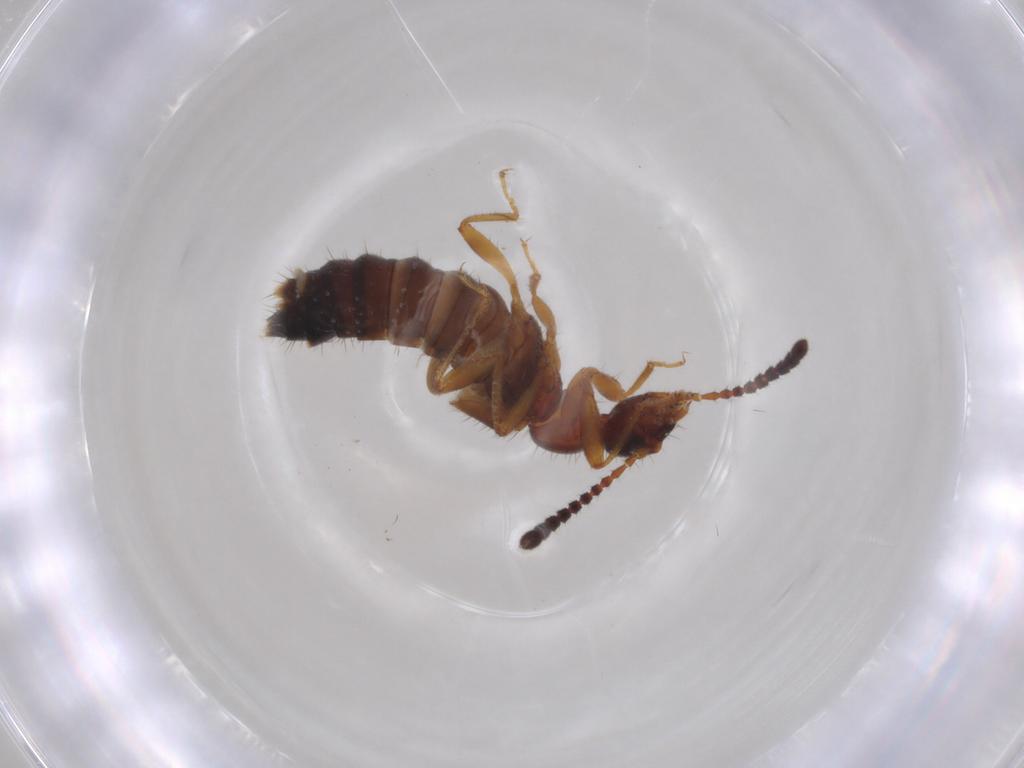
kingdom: Animalia
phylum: Arthropoda
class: Insecta
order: Coleoptera
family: Staphylinidae
